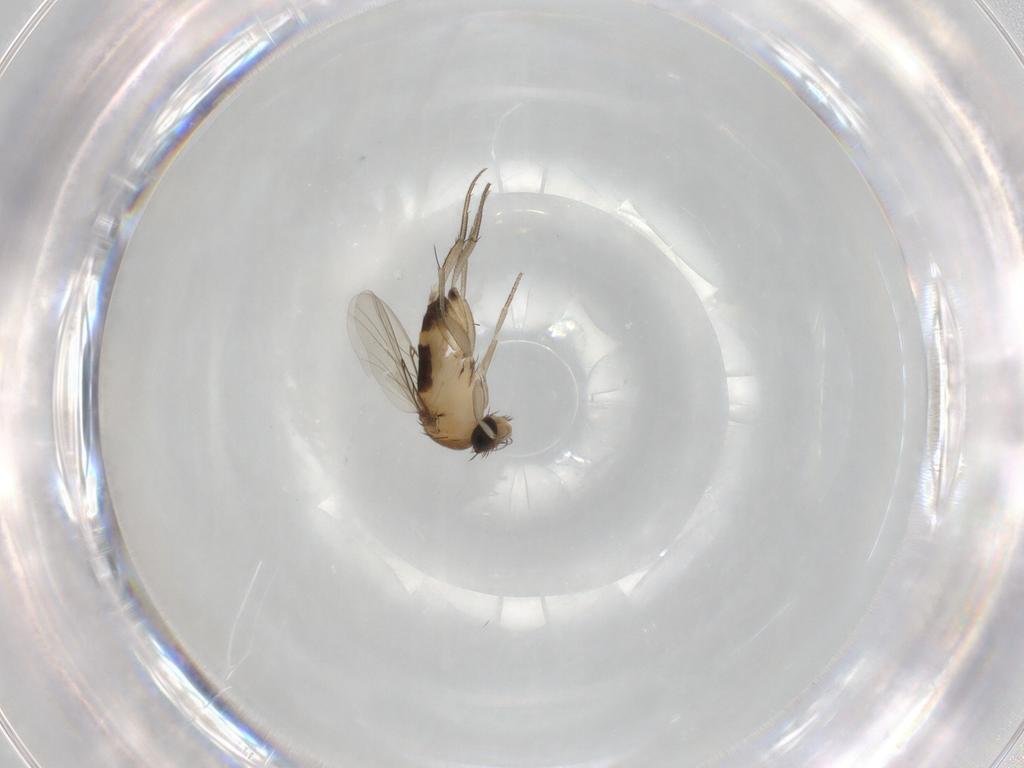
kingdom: Animalia
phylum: Arthropoda
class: Insecta
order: Diptera
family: Phoridae
